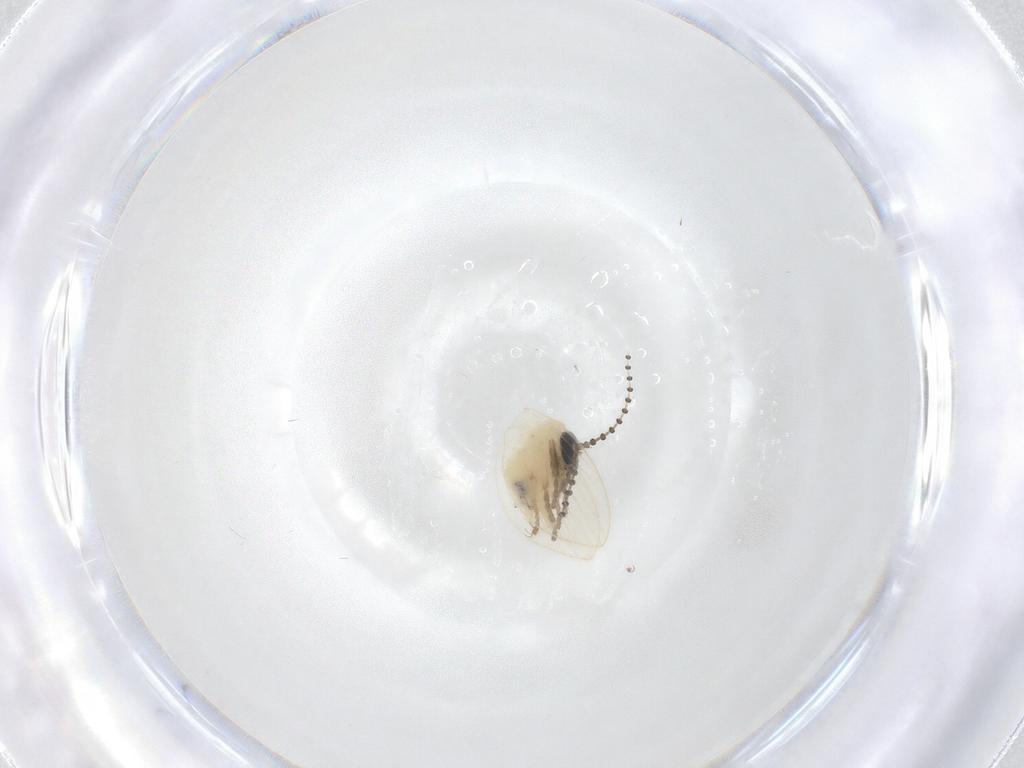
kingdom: Animalia
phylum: Arthropoda
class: Insecta
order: Diptera
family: Psychodidae
